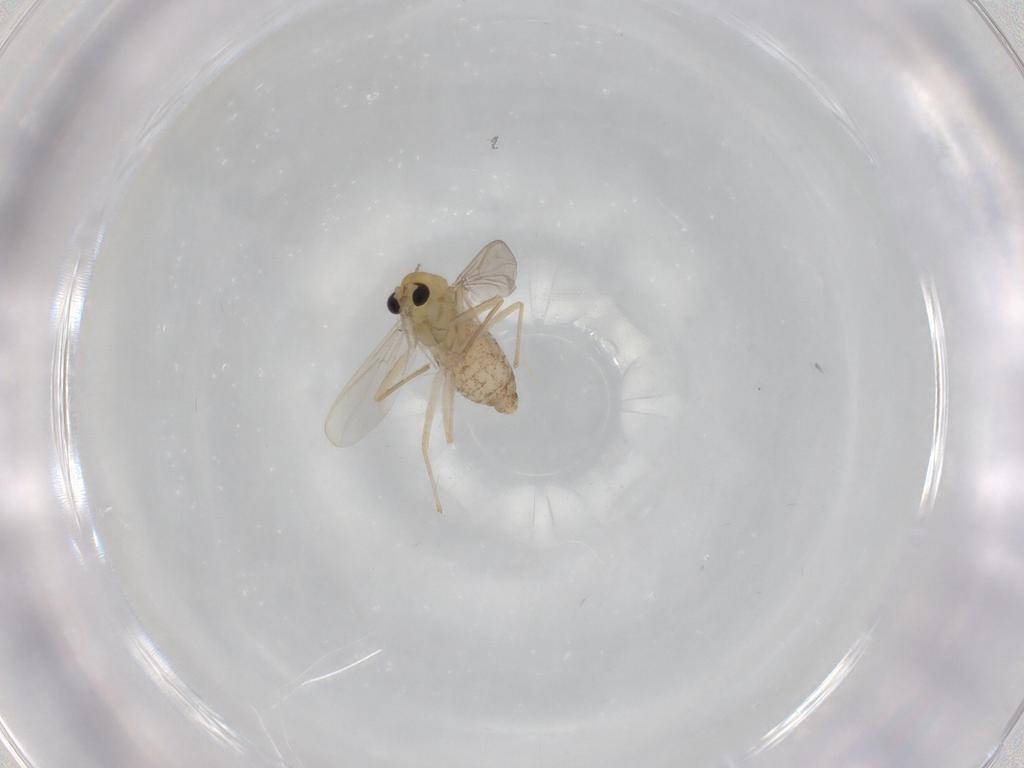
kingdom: Animalia
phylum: Arthropoda
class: Insecta
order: Diptera
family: Chironomidae
